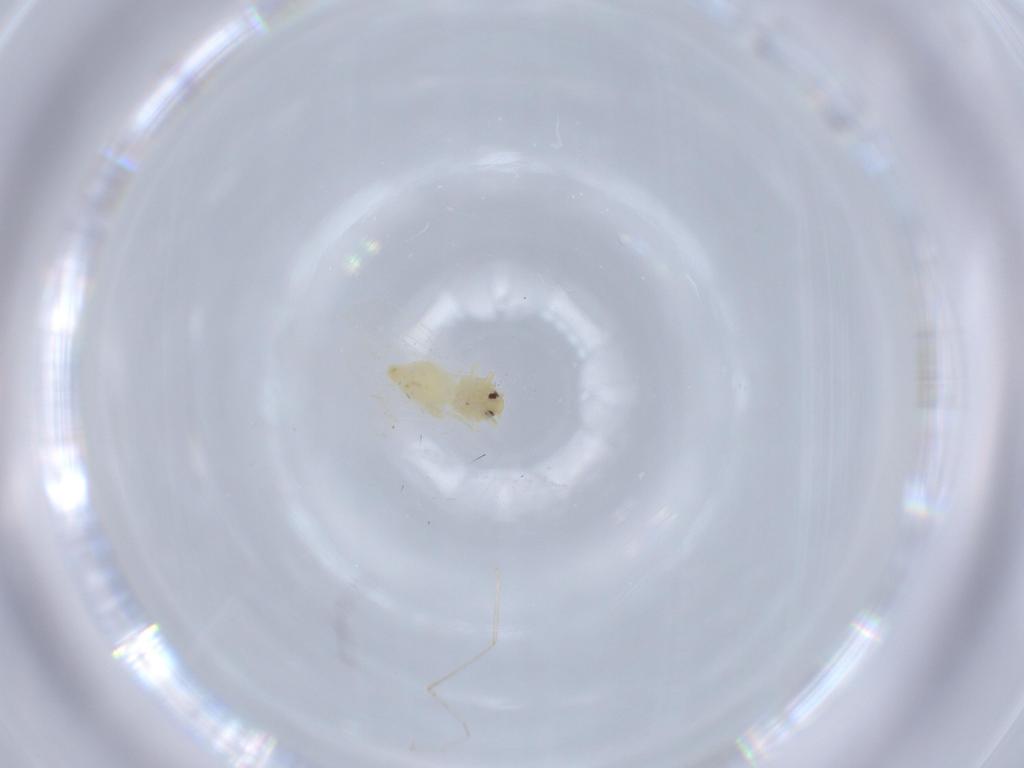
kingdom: Animalia
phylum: Arthropoda
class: Insecta
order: Hemiptera
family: Aleyrodidae
